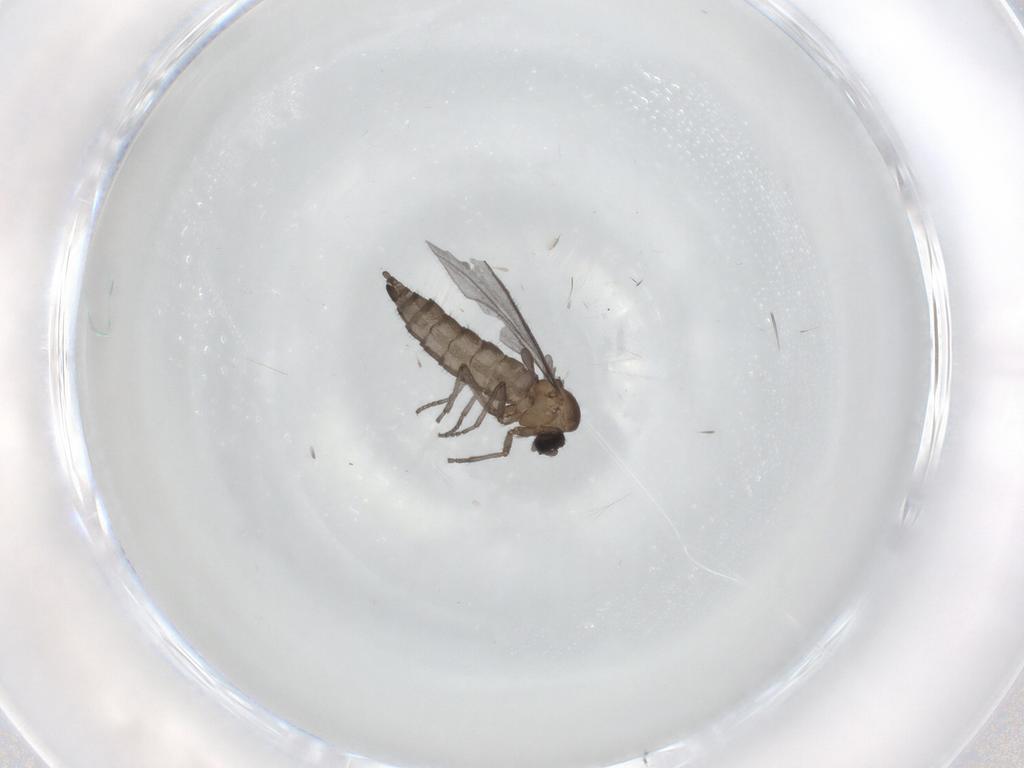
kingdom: Animalia
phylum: Arthropoda
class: Insecta
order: Diptera
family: Sciaridae
